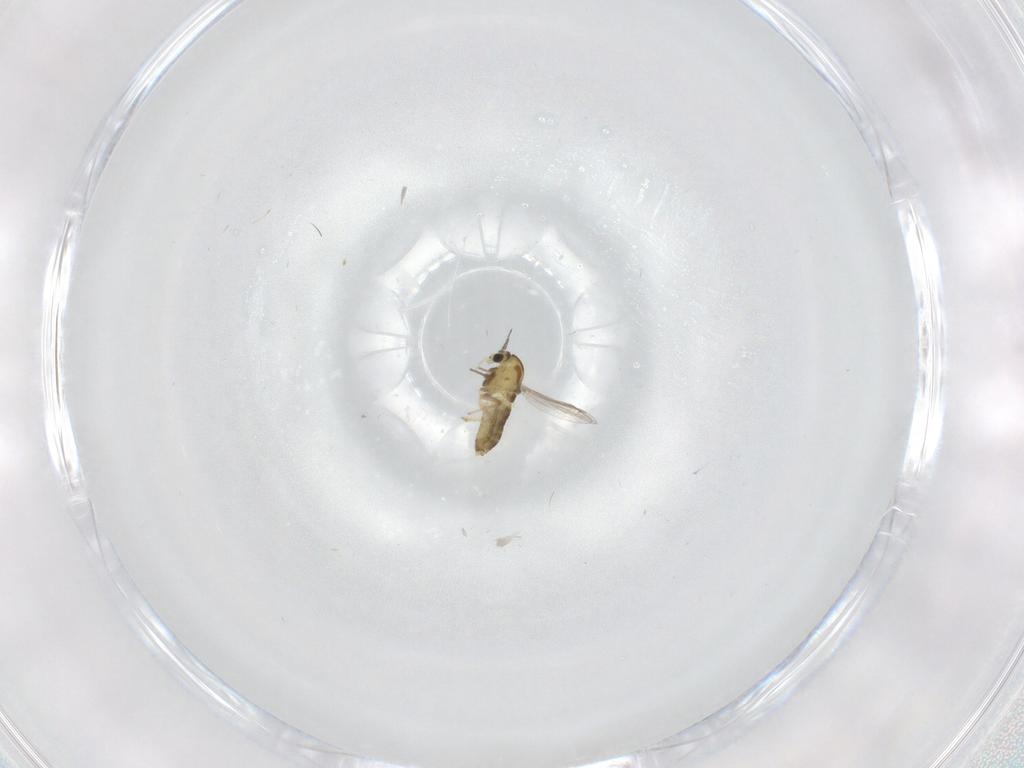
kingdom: Animalia
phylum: Arthropoda
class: Insecta
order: Diptera
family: Chironomidae
